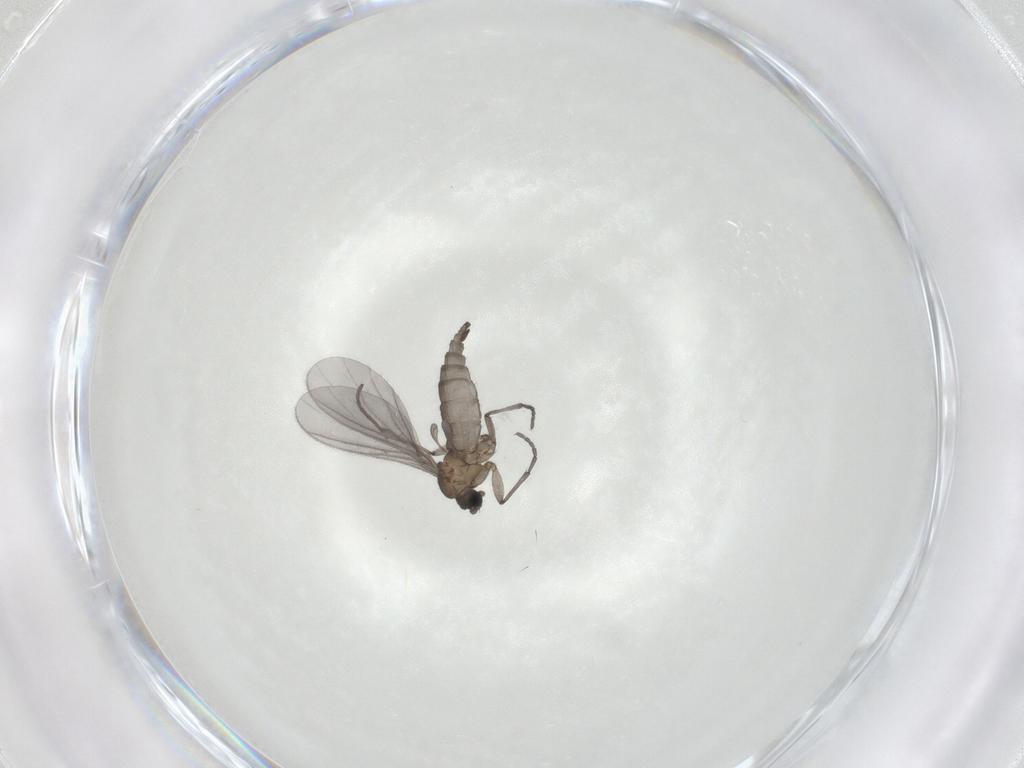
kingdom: Animalia
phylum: Arthropoda
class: Insecta
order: Diptera
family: Sciaridae
